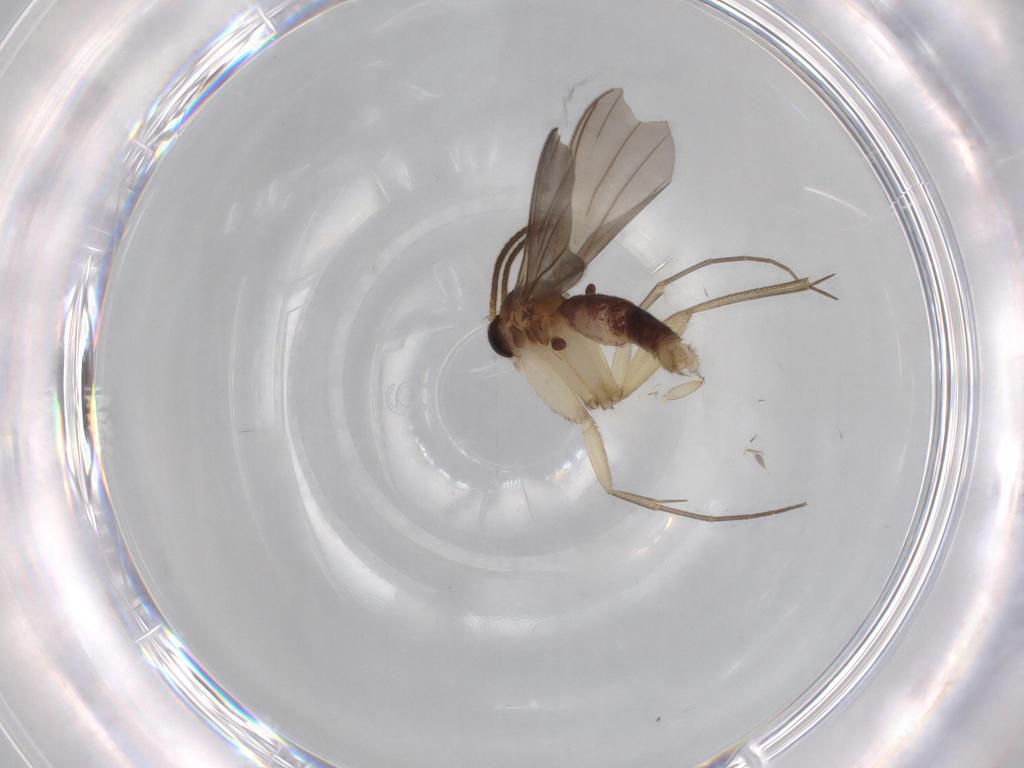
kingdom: Animalia
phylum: Arthropoda
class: Insecta
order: Diptera
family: Mycetophilidae
